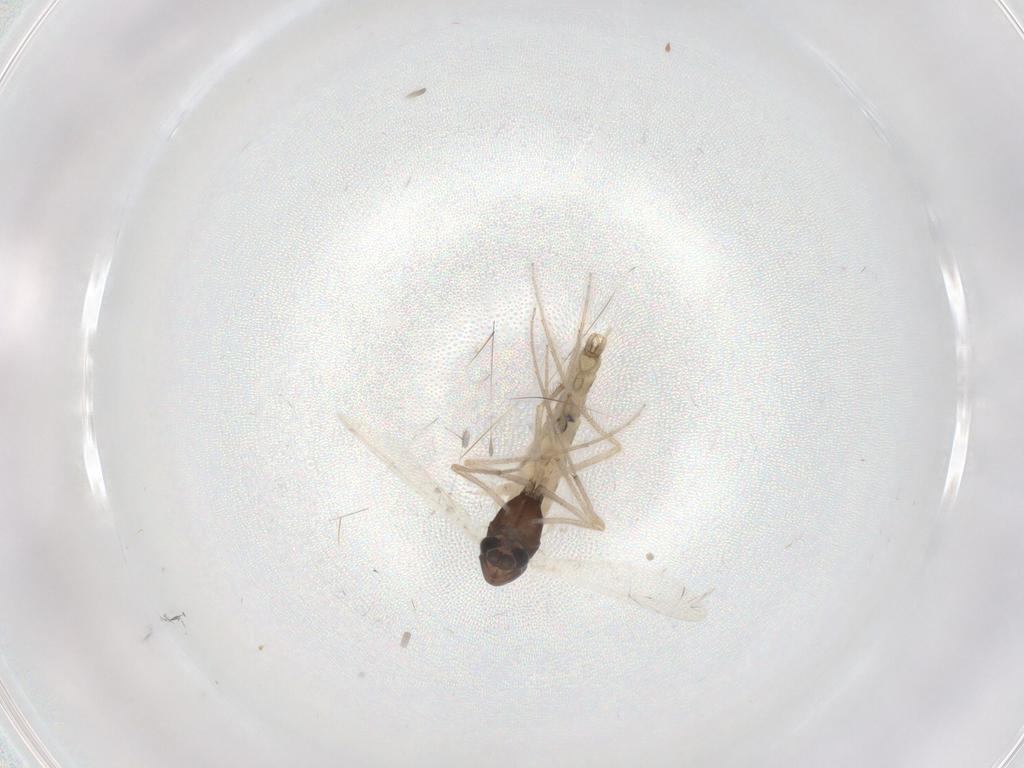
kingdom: Animalia
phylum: Arthropoda
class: Insecta
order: Diptera
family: Chironomidae
